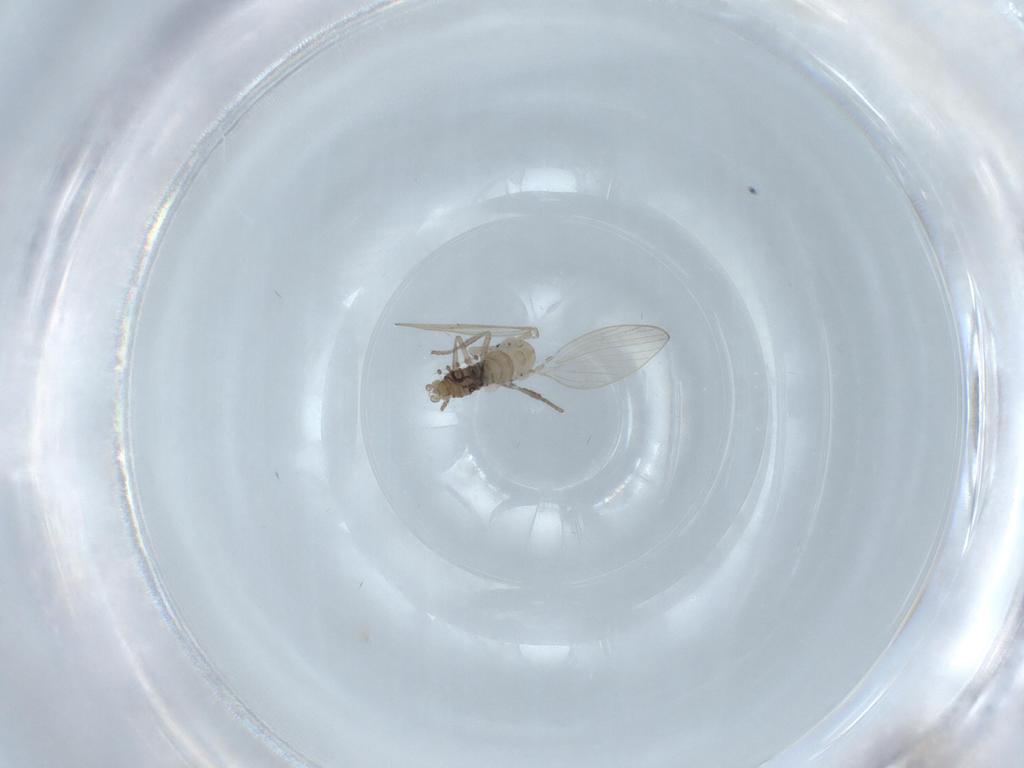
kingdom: Animalia
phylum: Arthropoda
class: Insecta
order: Diptera
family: Psychodidae
